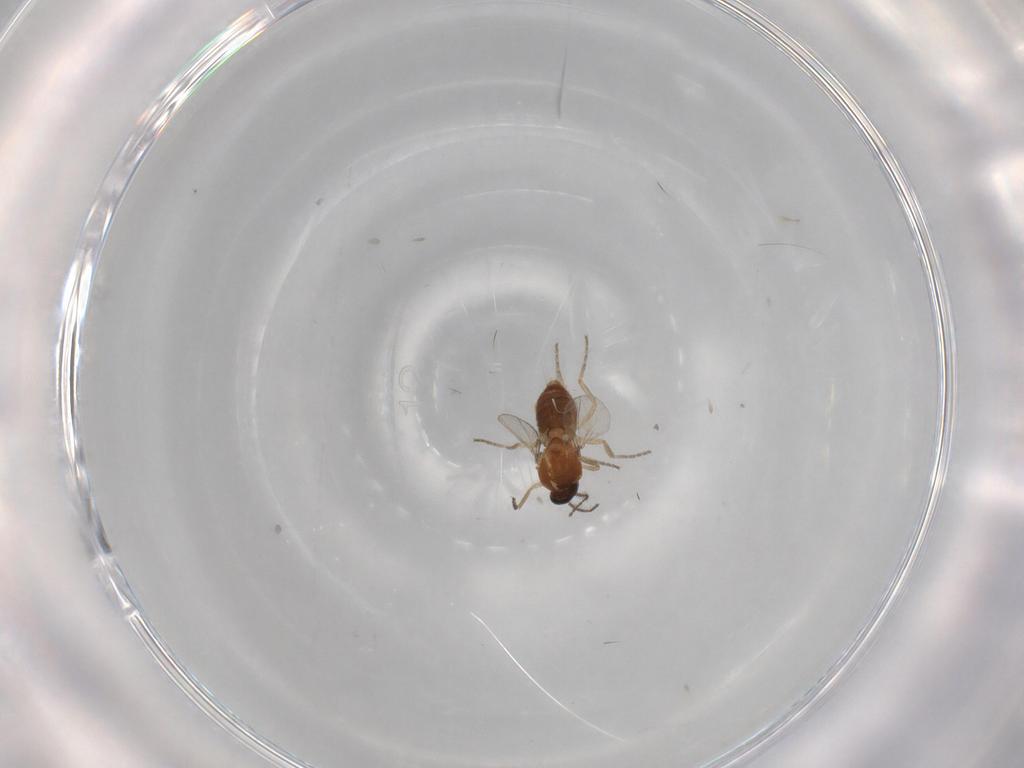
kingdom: Animalia
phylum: Arthropoda
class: Insecta
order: Diptera
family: Ceratopogonidae
